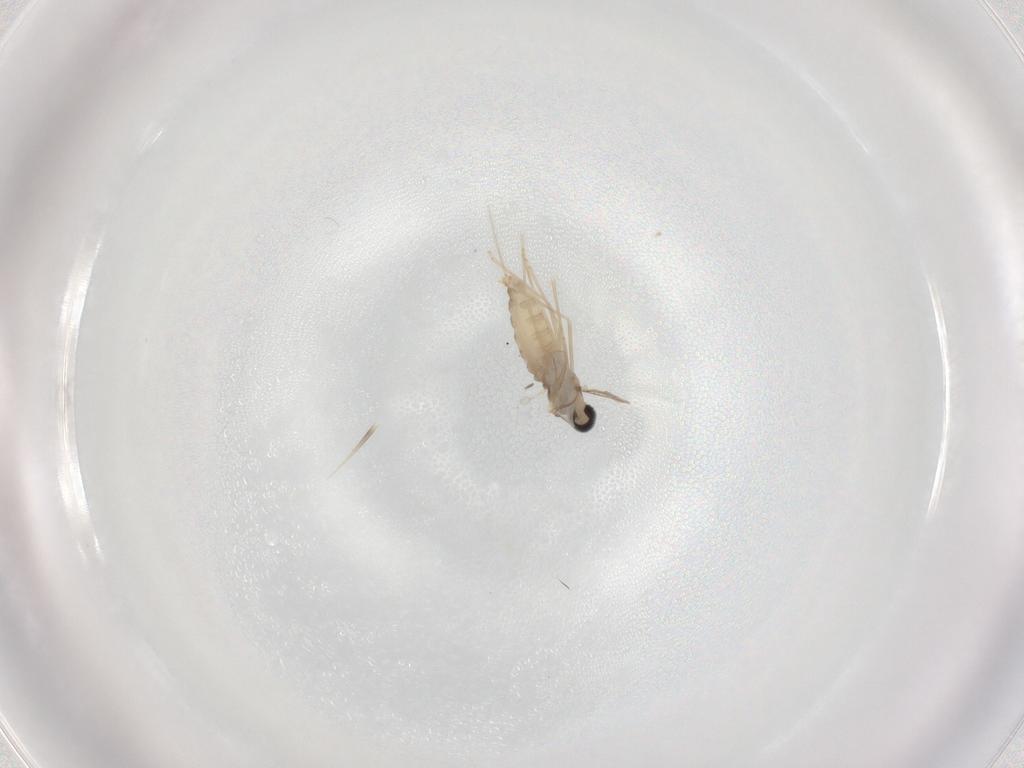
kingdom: Animalia
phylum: Arthropoda
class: Insecta
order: Diptera
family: Cecidomyiidae
